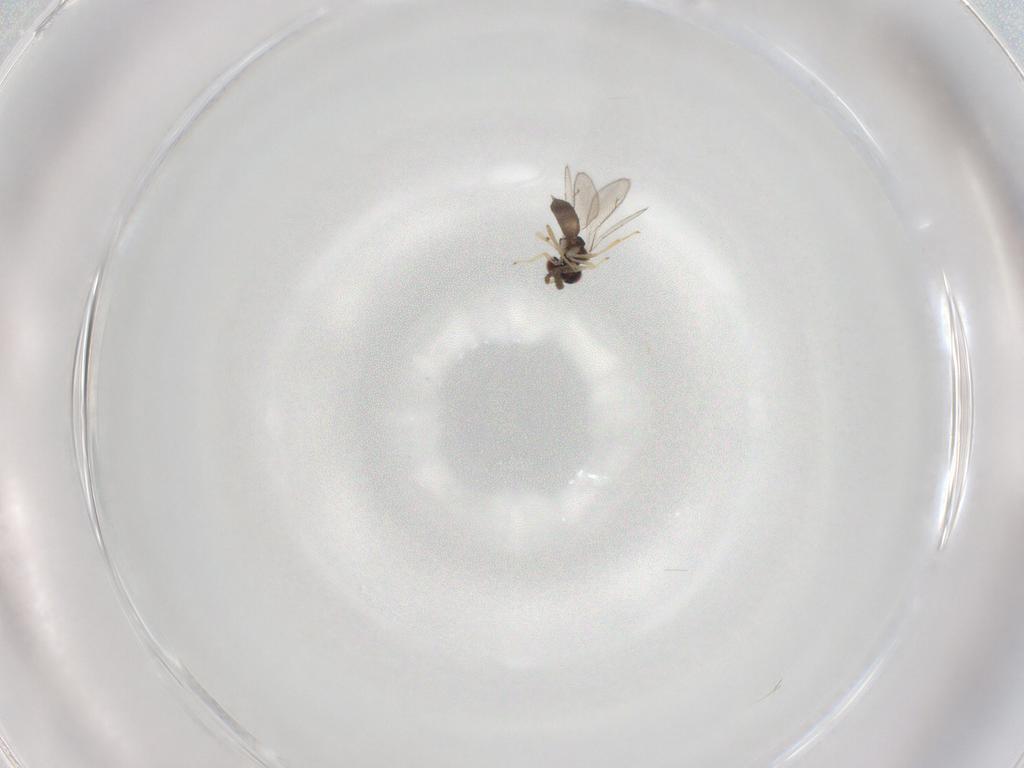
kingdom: Animalia
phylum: Arthropoda
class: Insecta
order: Hymenoptera
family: Eulophidae
